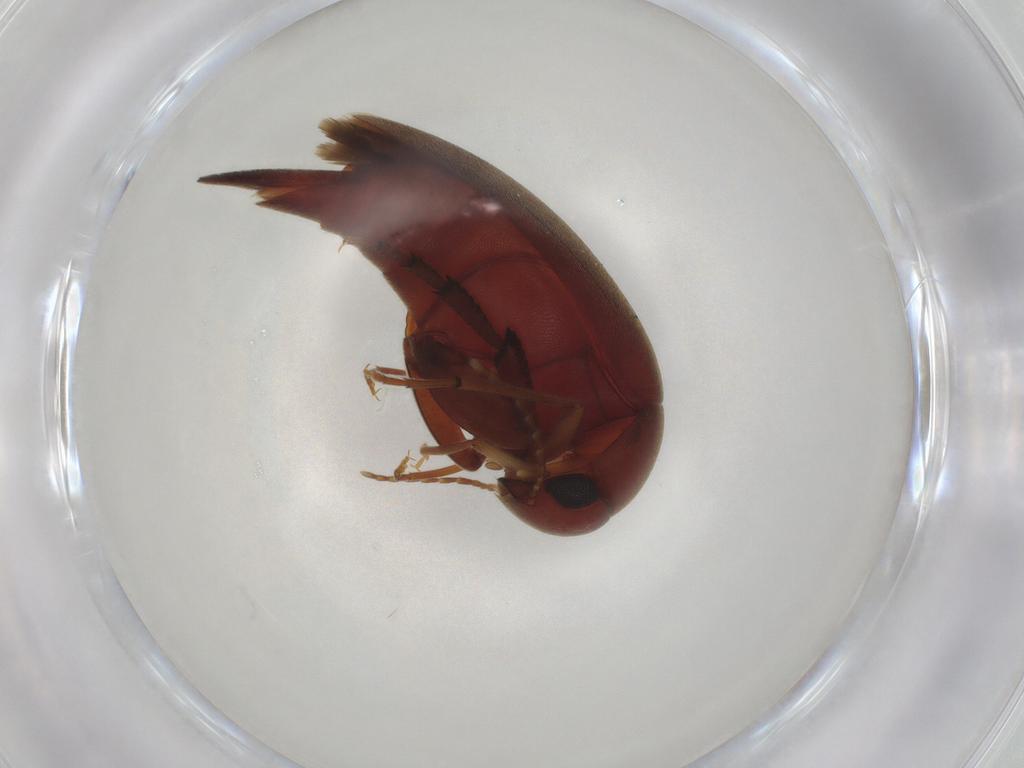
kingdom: Animalia
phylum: Arthropoda
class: Insecta
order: Coleoptera
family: Mordellidae
